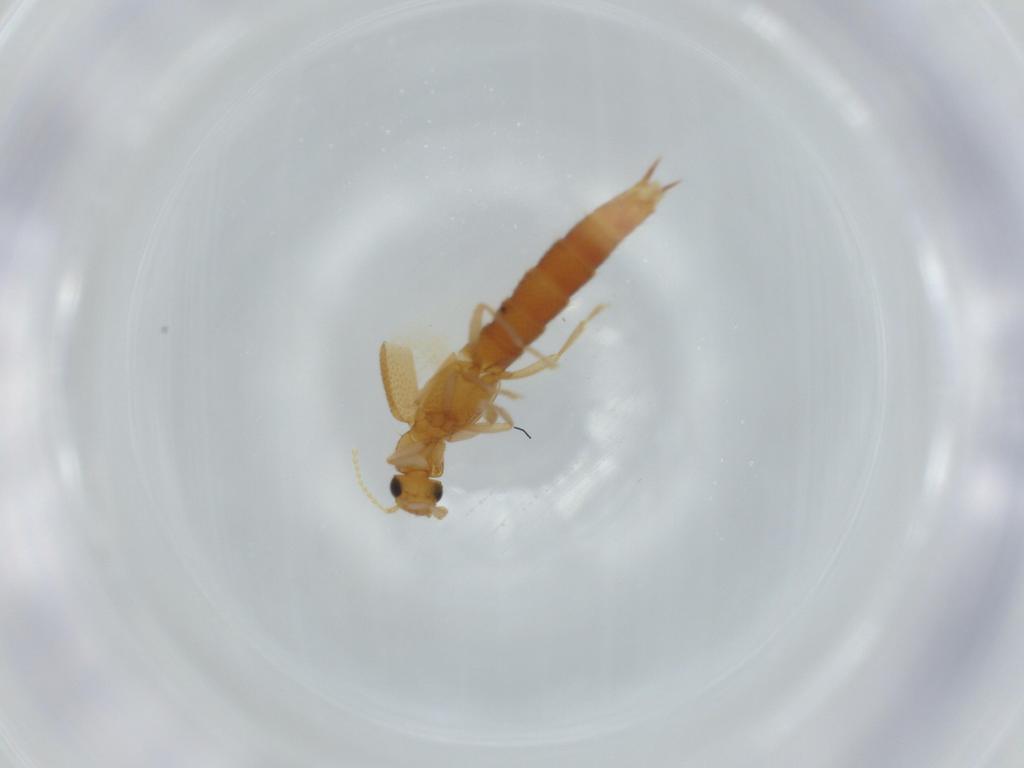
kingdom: Animalia
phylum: Arthropoda
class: Insecta
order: Coleoptera
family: Staphylinidae
